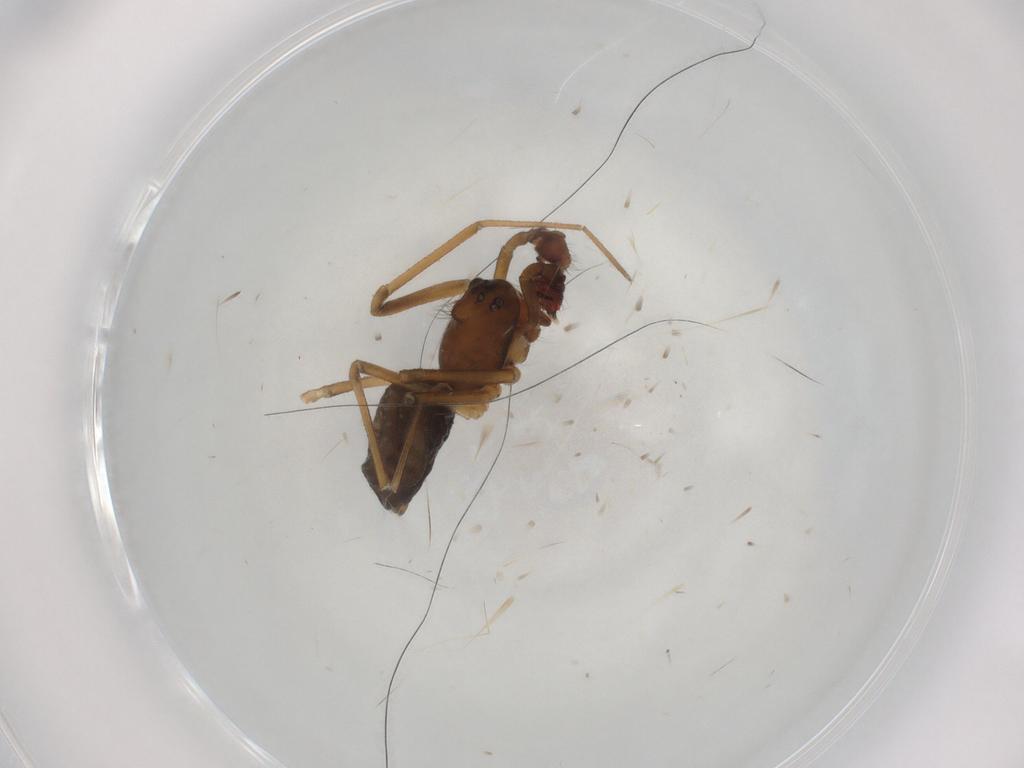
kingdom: Animalia
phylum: Arthropoda
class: Arachnida
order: Araneae
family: Linyphiidae
